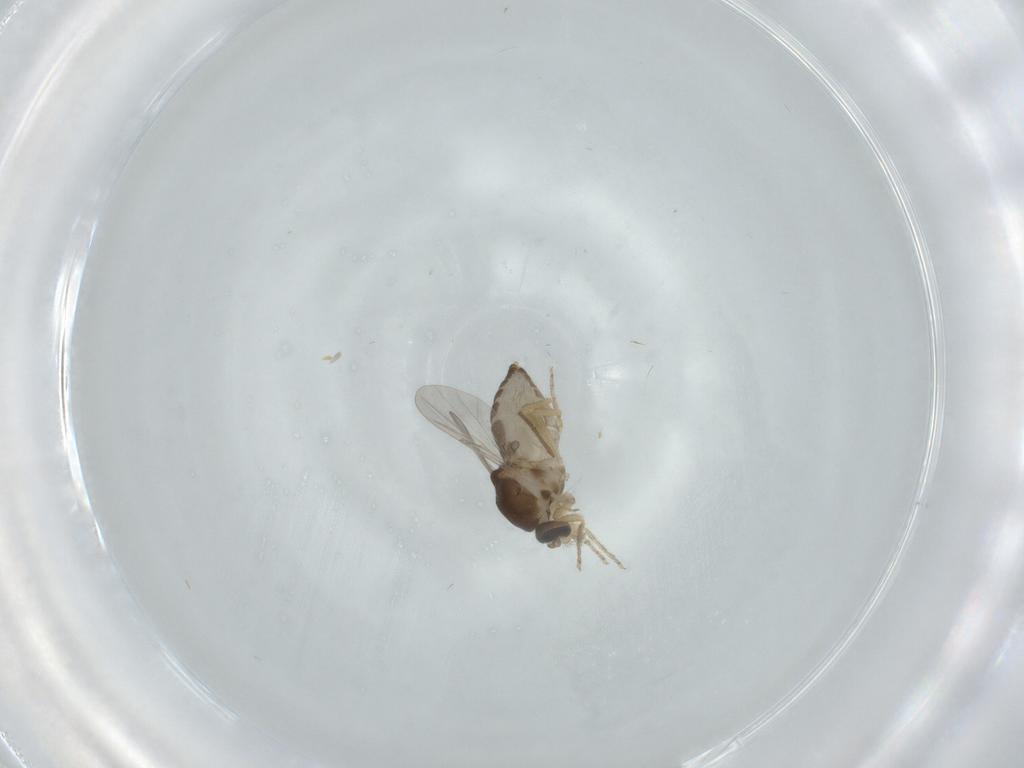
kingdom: Animalia
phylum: Arthropoda
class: Insecta
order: Diptera
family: Ceratopogonidae
